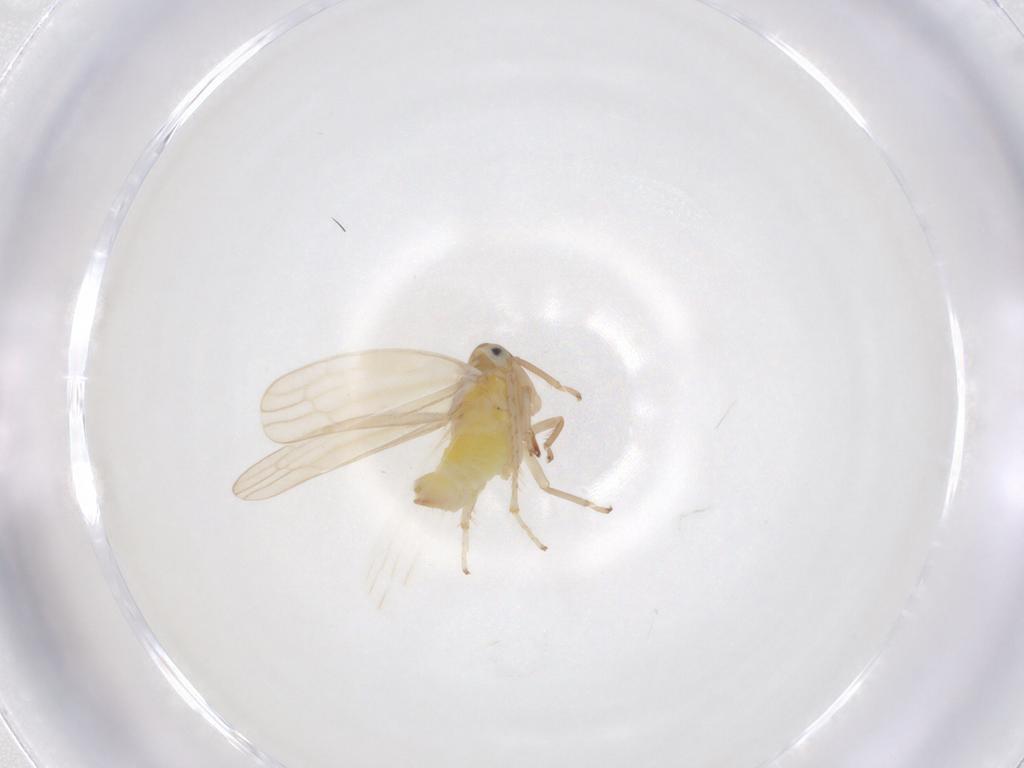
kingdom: Animalia
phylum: Arthropoda
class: Insecta
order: Hemiptera
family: Cicadellidae
